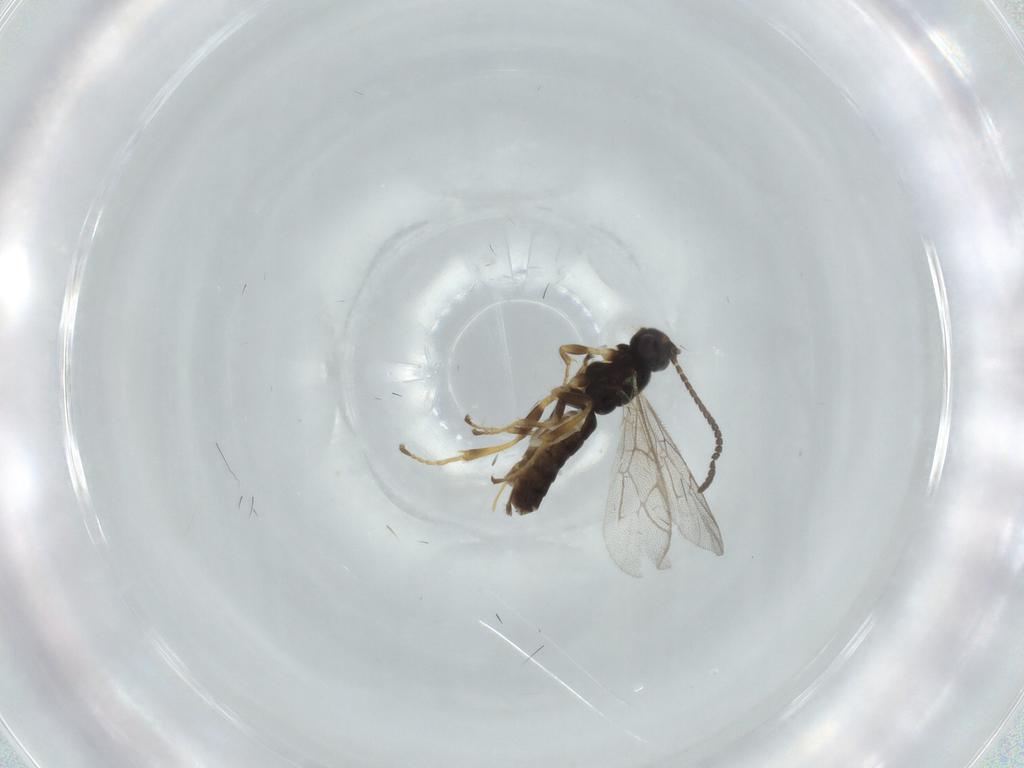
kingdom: Animalia
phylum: Arthropoda
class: Insecta
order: Hymenoptera
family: Ichneumonidae
